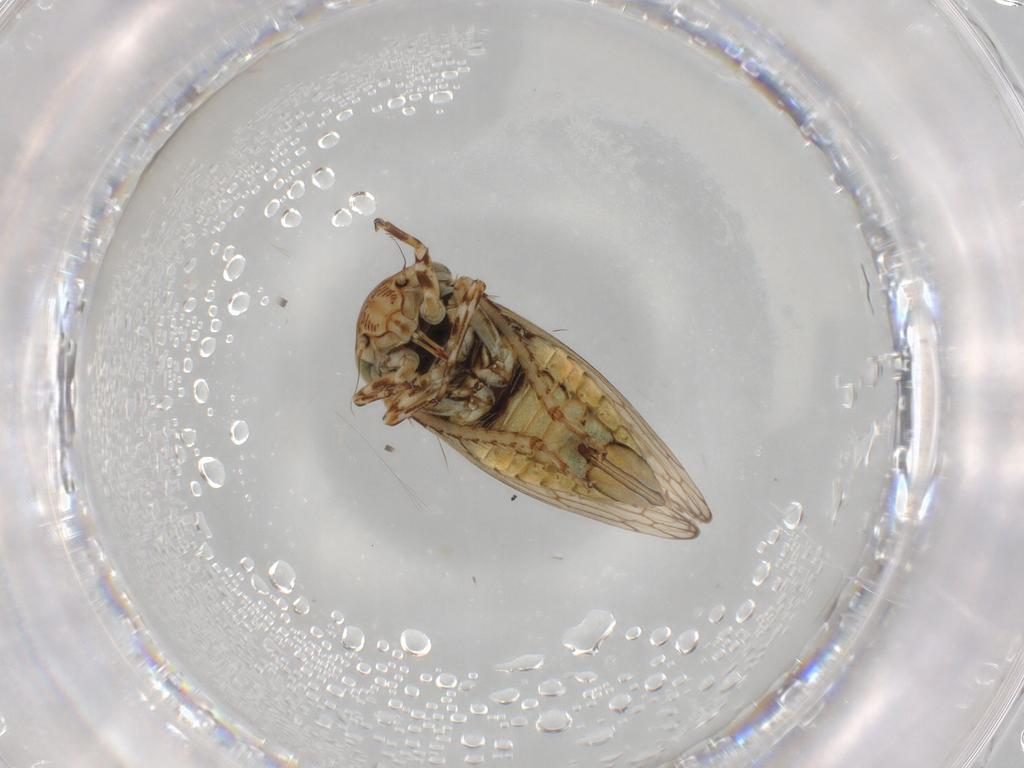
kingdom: Animalia
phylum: Arthropoda
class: Insecta
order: Hemiptera
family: Cicadellidae
